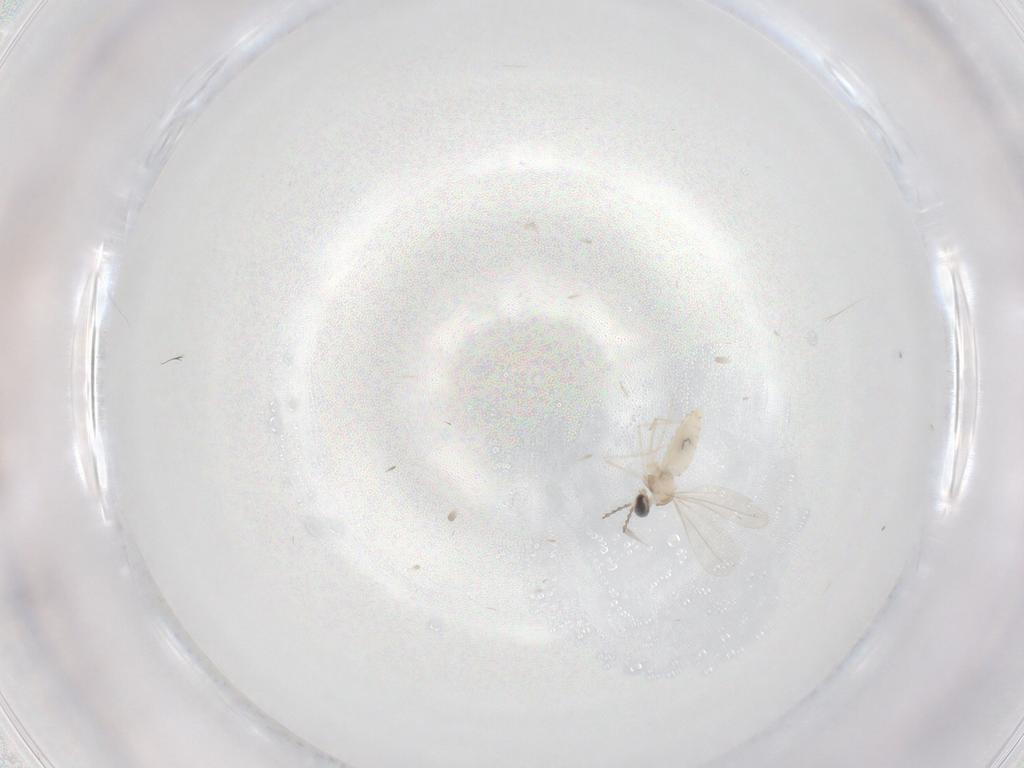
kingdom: Animalia
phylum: Arthropoda
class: Insecta
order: Diptera
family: Cecidomyiidae
